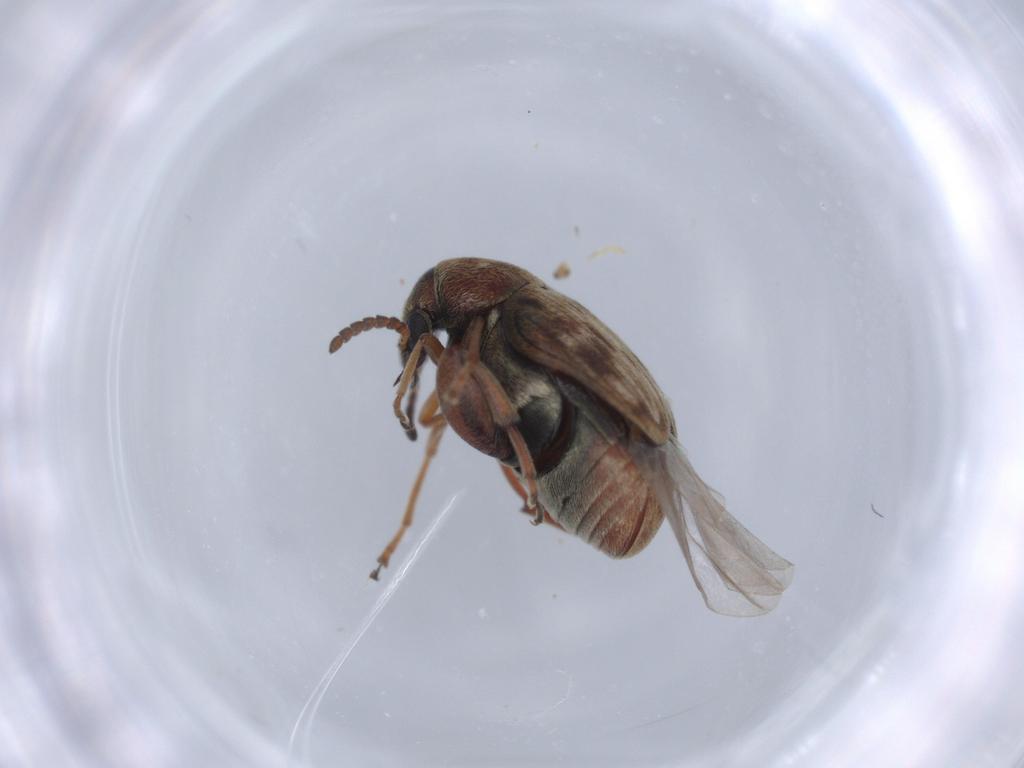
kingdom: Animalia
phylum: Arthropoda
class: Insecta
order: Coleoptera
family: Chrysomelidae
